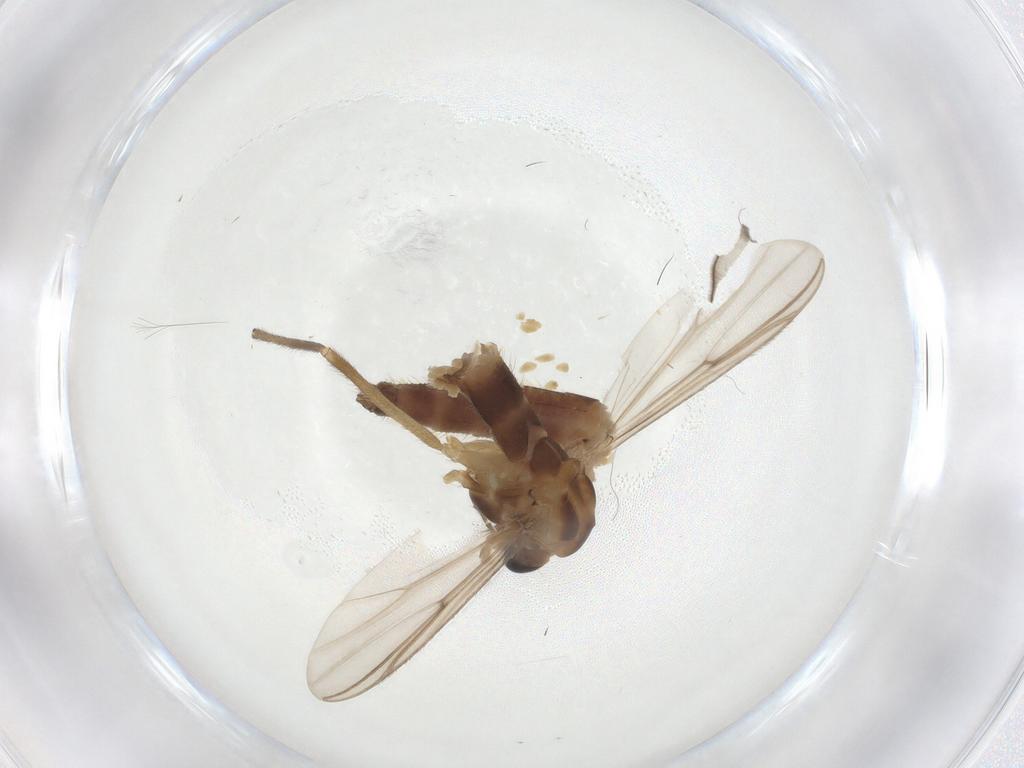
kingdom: Animalia
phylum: Arthropoda
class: Insecta
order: Diptera
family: Chironomidae
